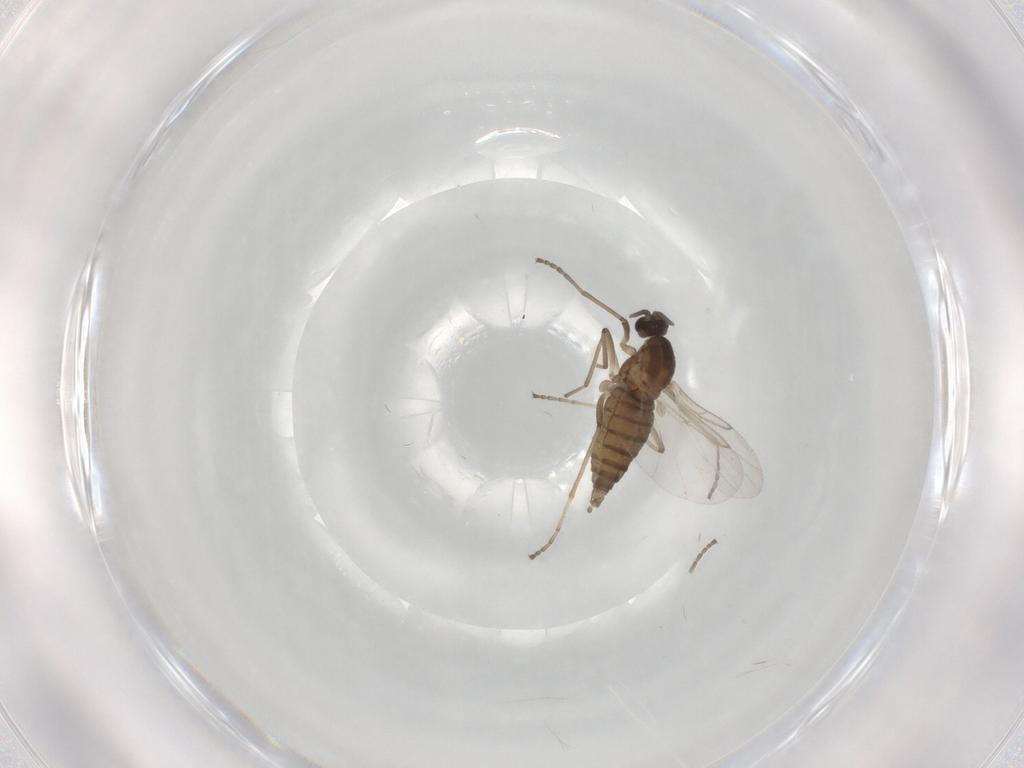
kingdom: Animalia
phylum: Arthropoda
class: Insecta
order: Diptera
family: Cecidomyiidae
